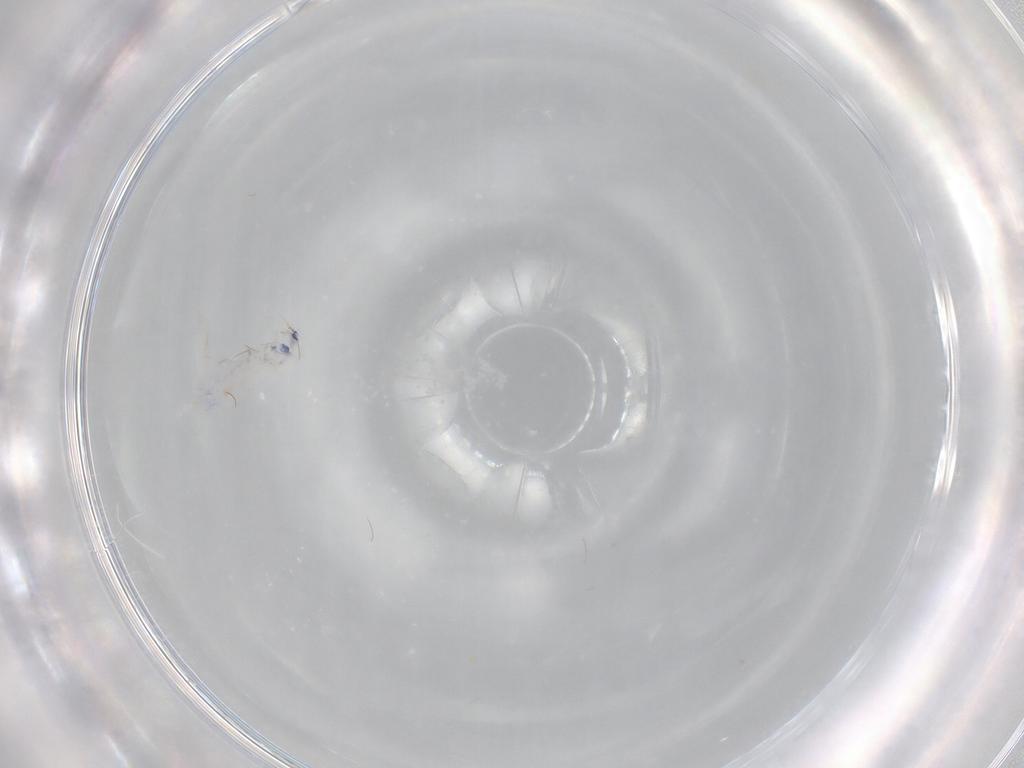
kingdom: Animalia
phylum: Arthropoda
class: Collembola
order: Entomobryomorpha
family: Entomobryidae
